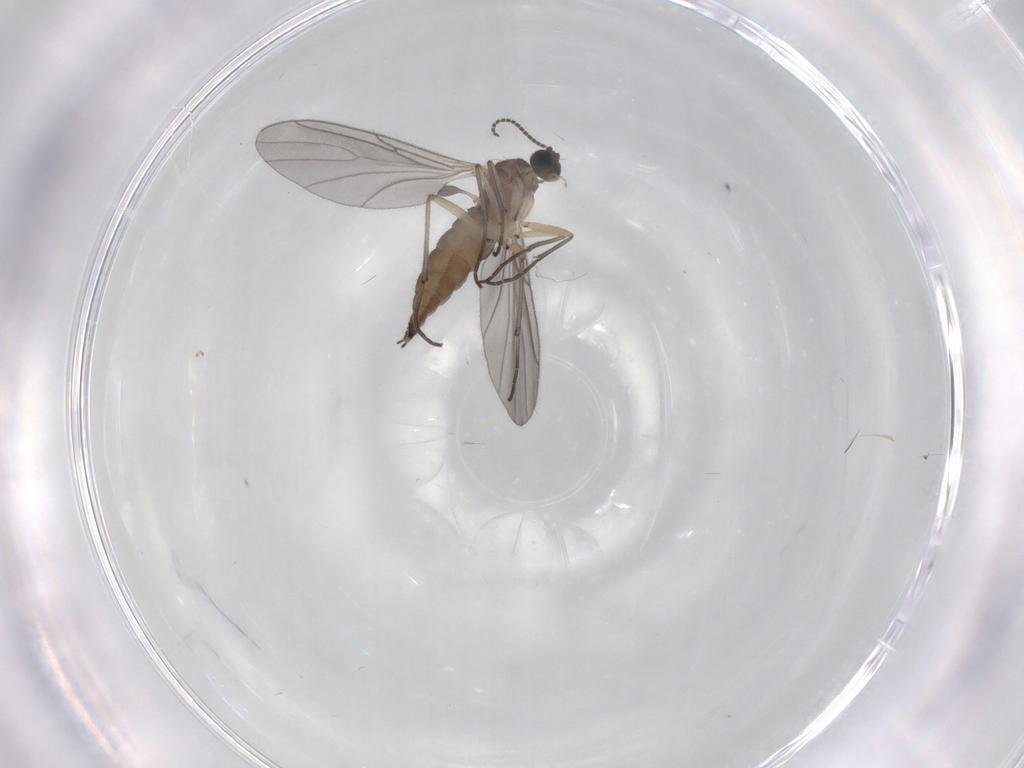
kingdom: Animalia
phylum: Arthropoda
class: Insecta
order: Diptera
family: Sciaridae
